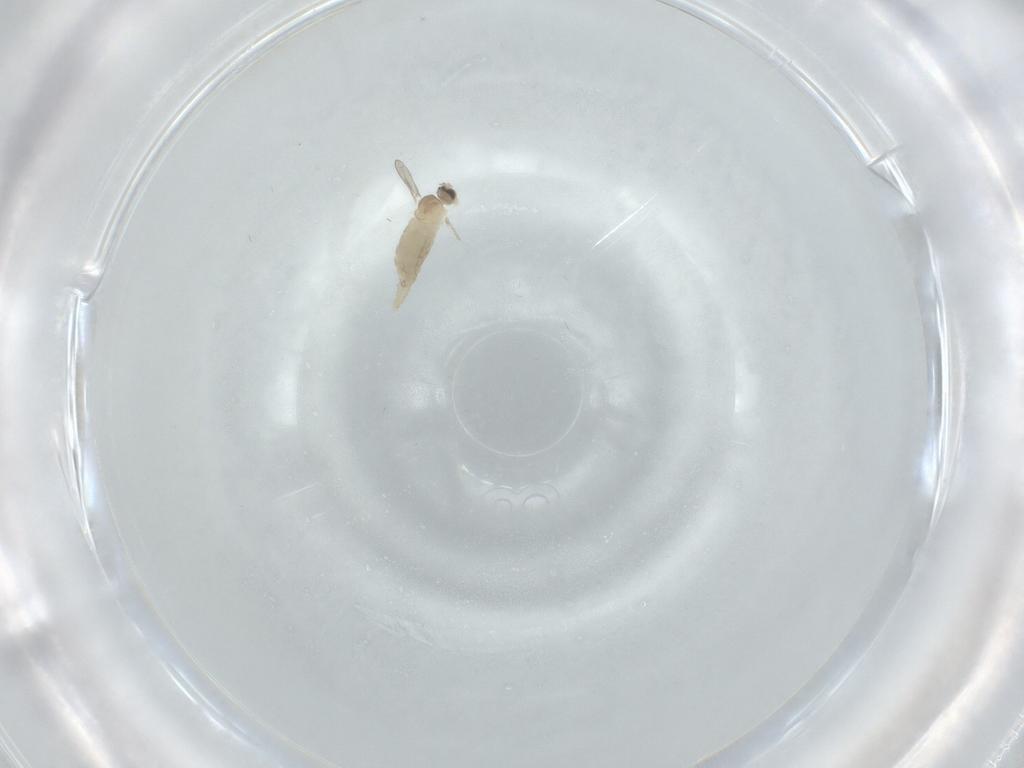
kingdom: Animalia
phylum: Arthropoda
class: Insecta
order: Diptera
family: Cecidomyiidae
